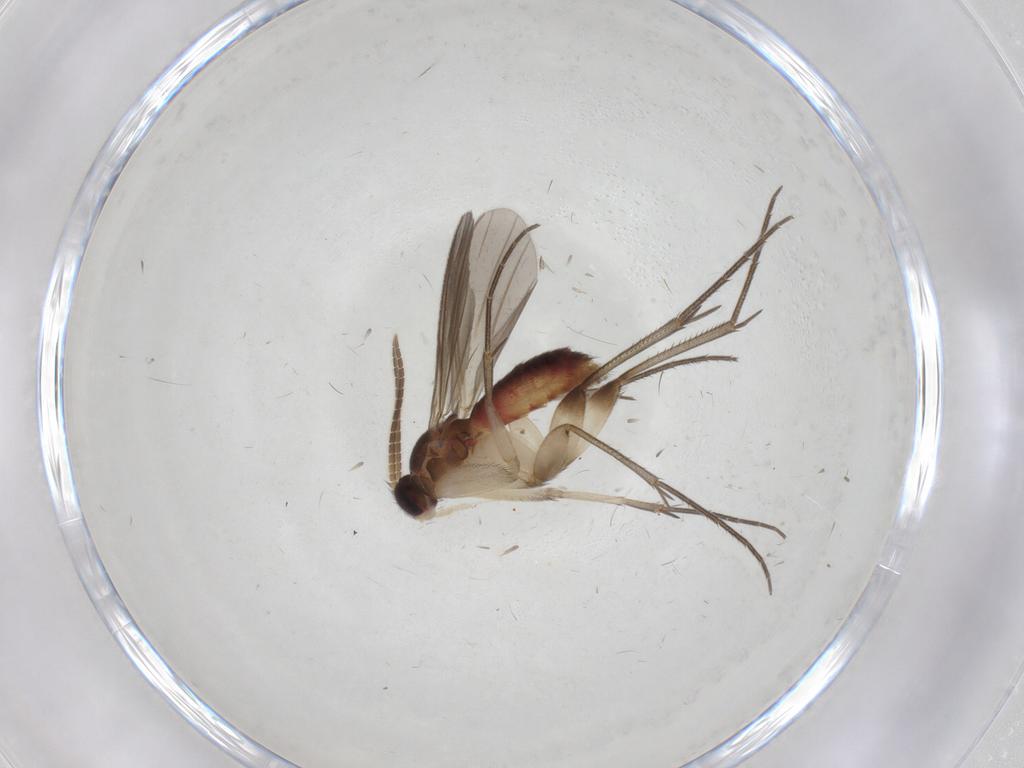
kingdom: Animalia
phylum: Arthropoda
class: Insecta
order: Diptera
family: Mycetophilidae
